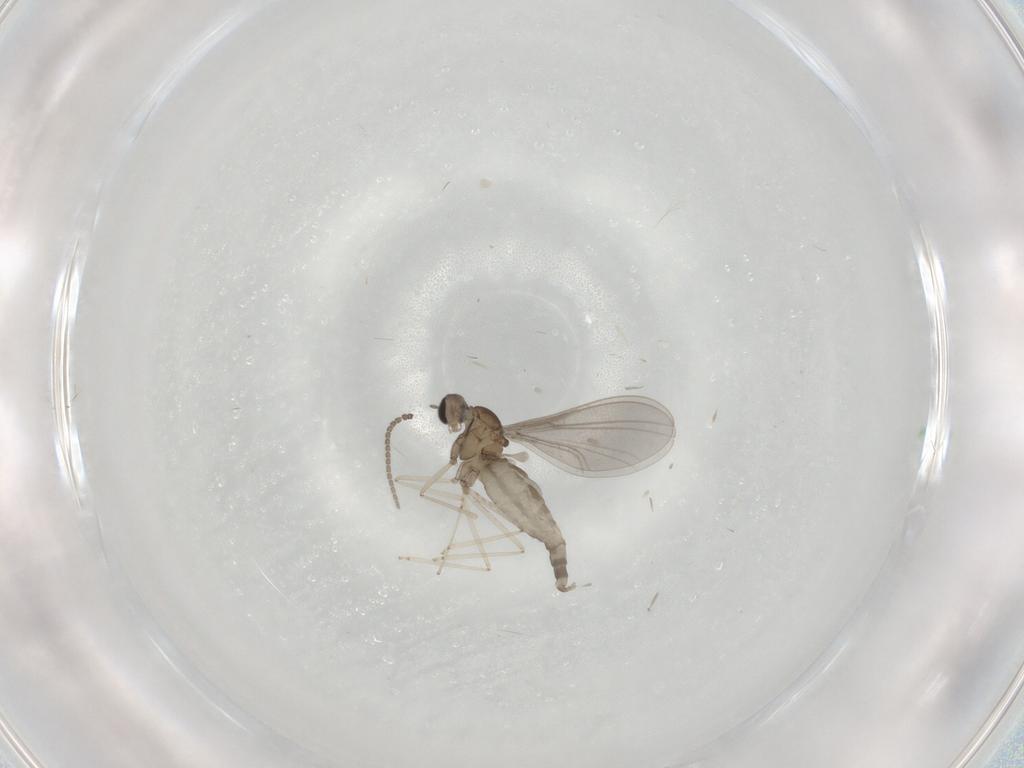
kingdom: Animalia
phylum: Arthropoda
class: Insecta
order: Diptera
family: Cecidomyiidae
